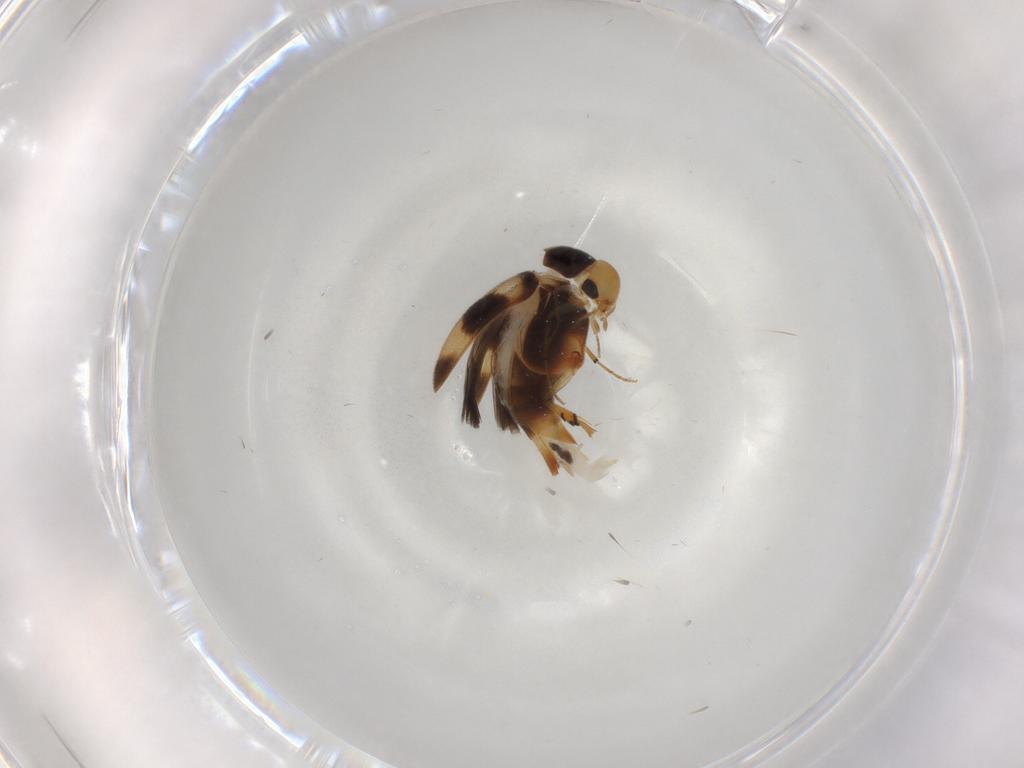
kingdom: Animalia
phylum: Arthropoda
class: Insecta
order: Coleoptera
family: Mordellidae
